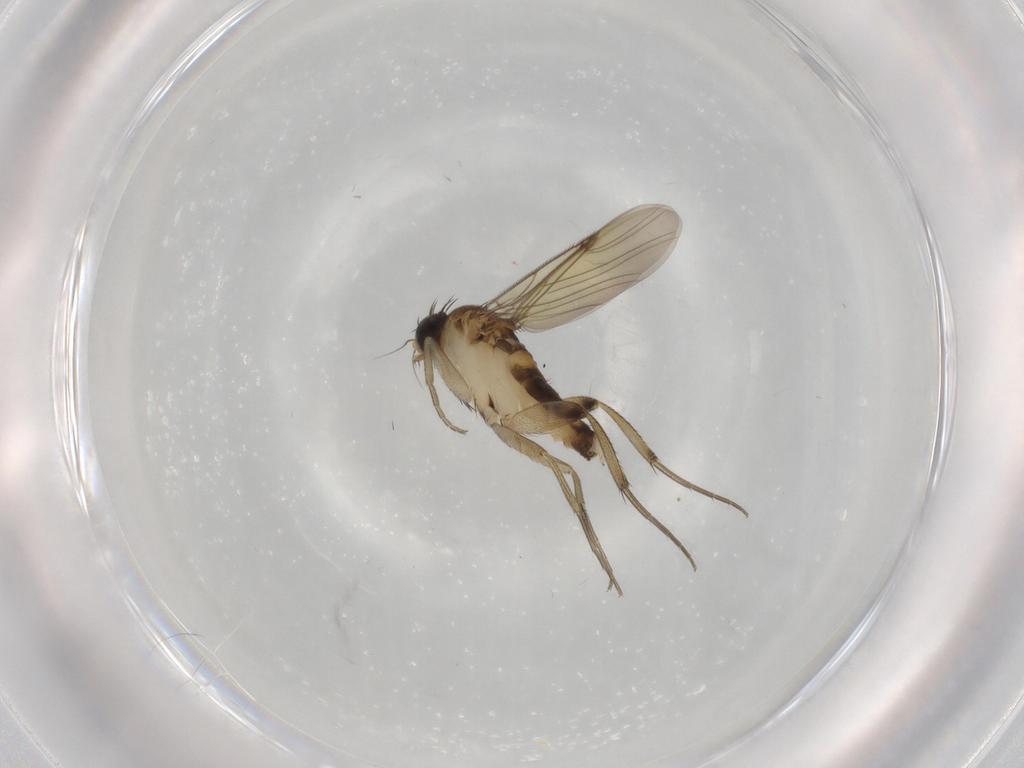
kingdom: Animalia
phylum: Arthropoda
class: Insecta
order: Diptera
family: Phoridae
